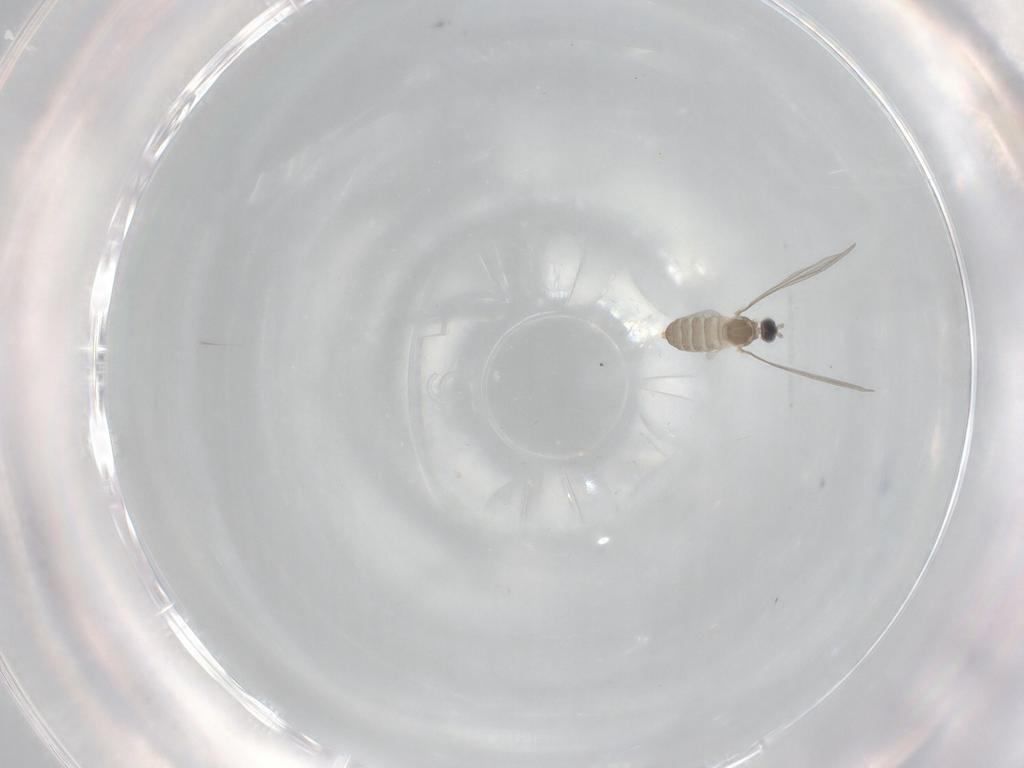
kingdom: Animalia
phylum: Arthropoda
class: Insecta
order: Diptera
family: Cecidomyiidae
